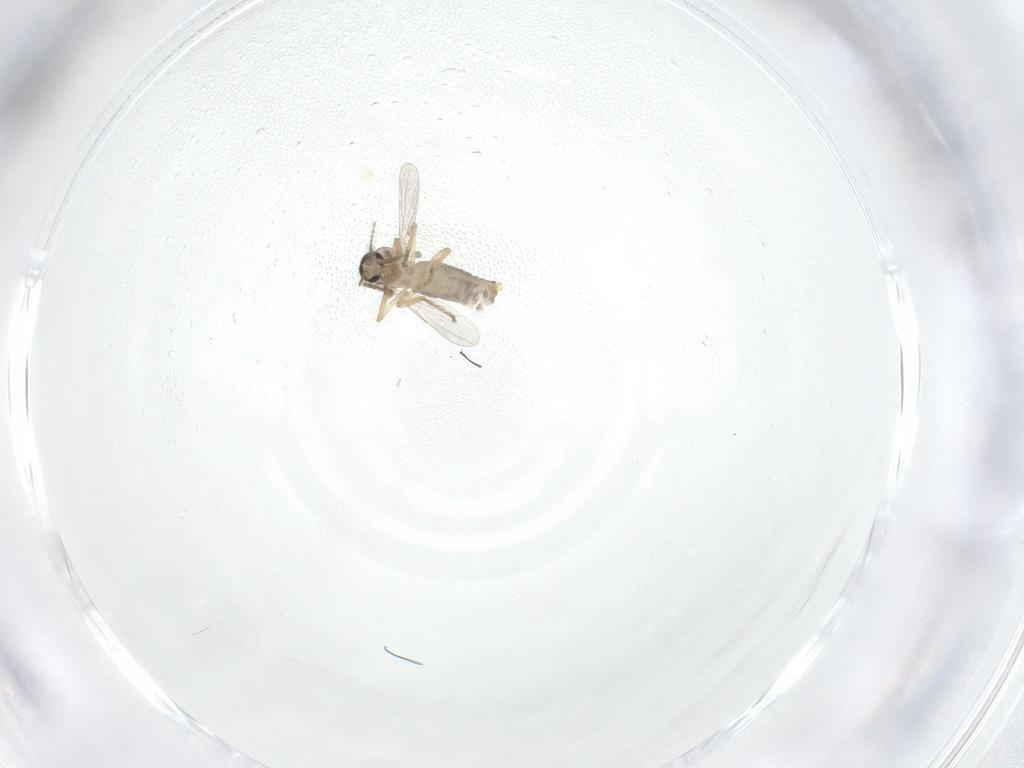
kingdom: Animalia
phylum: Arthropoda
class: Insecta
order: Diptera
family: Ceratopogonidae
